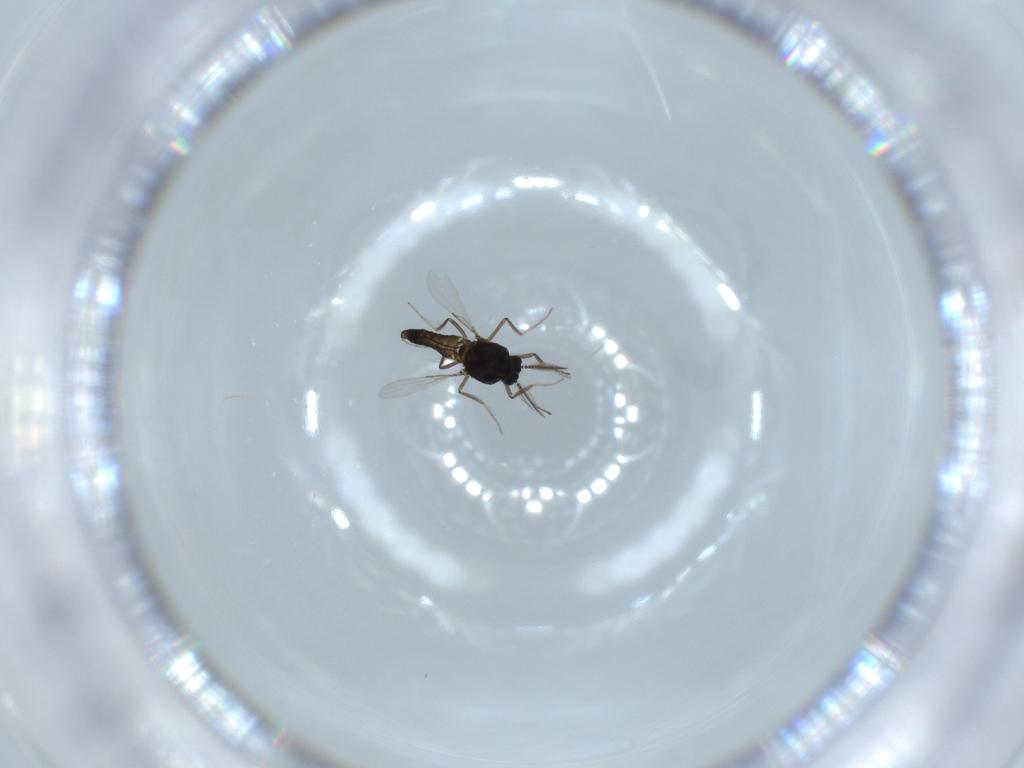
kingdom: Animalia
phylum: Arthropoda
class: Insecta
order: Diptera
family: Ceratopogonidae
